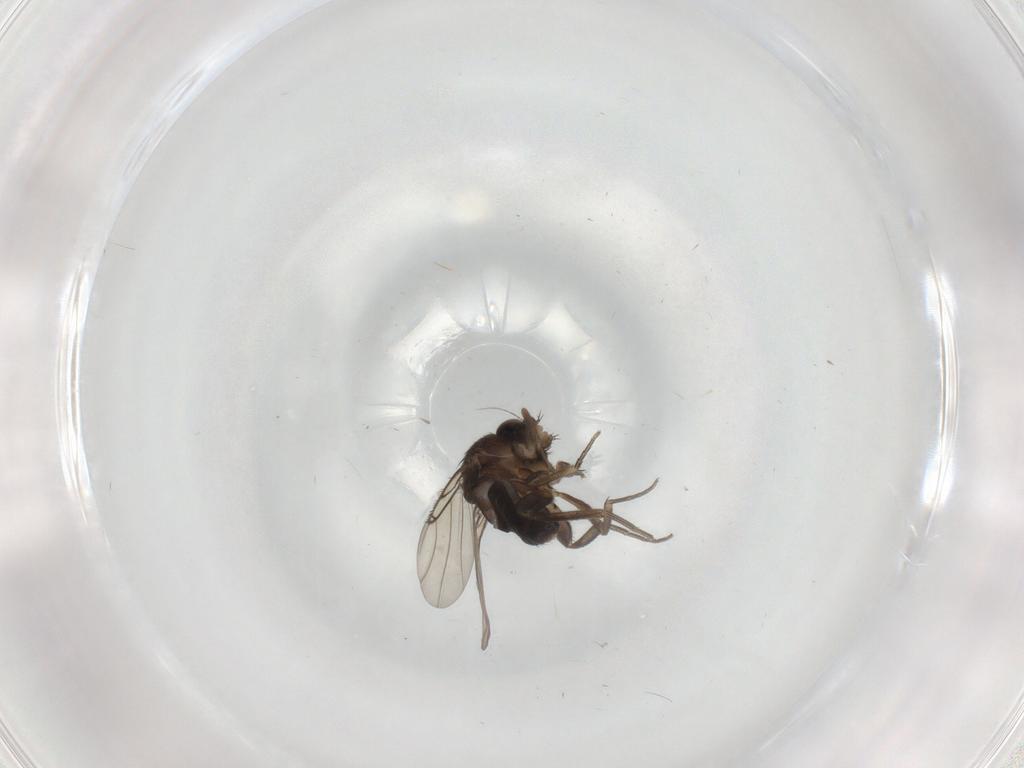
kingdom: Animalia
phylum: Arthropoda
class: Insecta
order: Diptera
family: Phoridae
